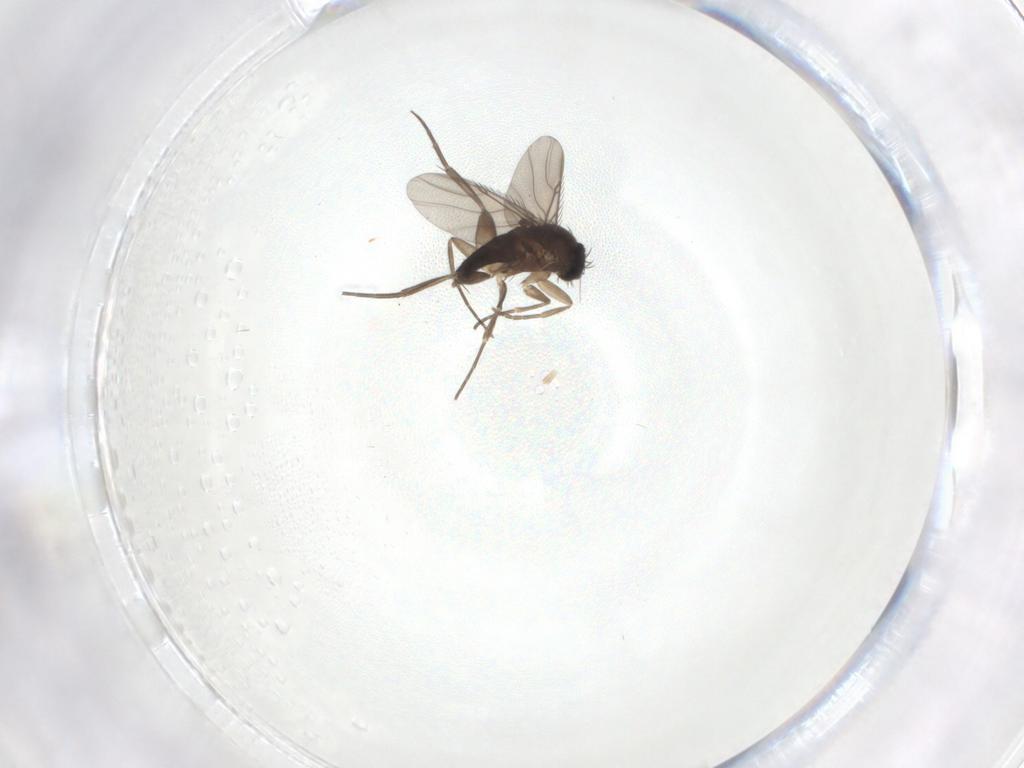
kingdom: Animalia
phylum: Arthropoda
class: Insecta
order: Diptera
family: Phoridae
